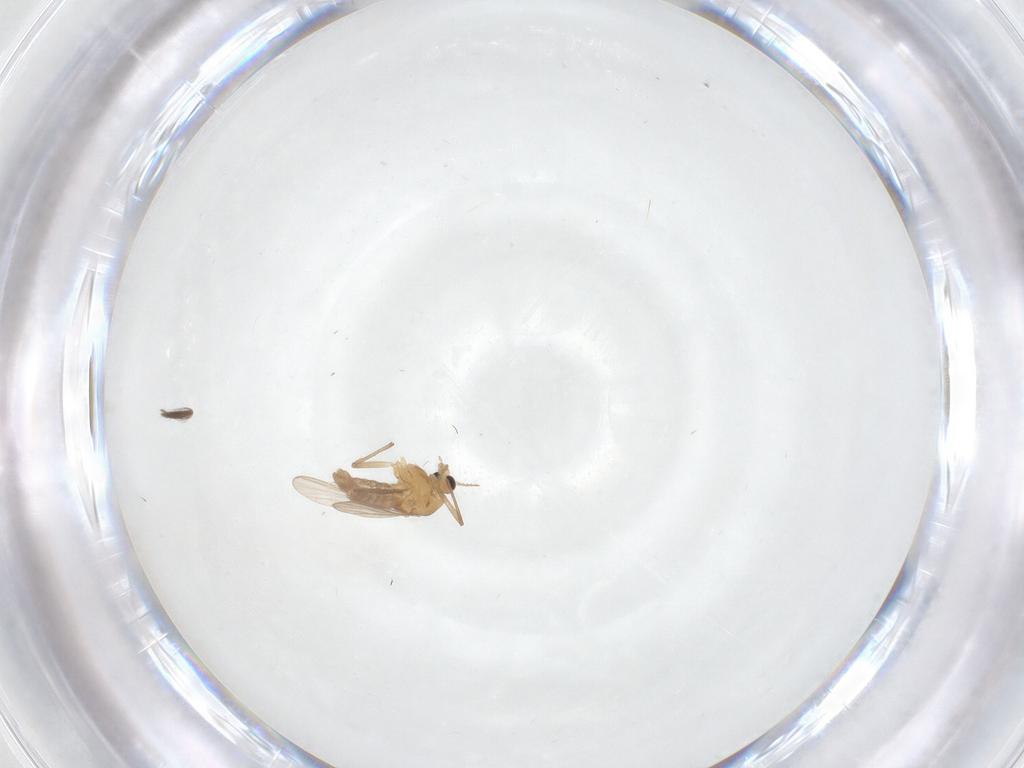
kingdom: Animalia
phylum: Arthropoda
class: Insecta
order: Diptera
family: Chironomidae
